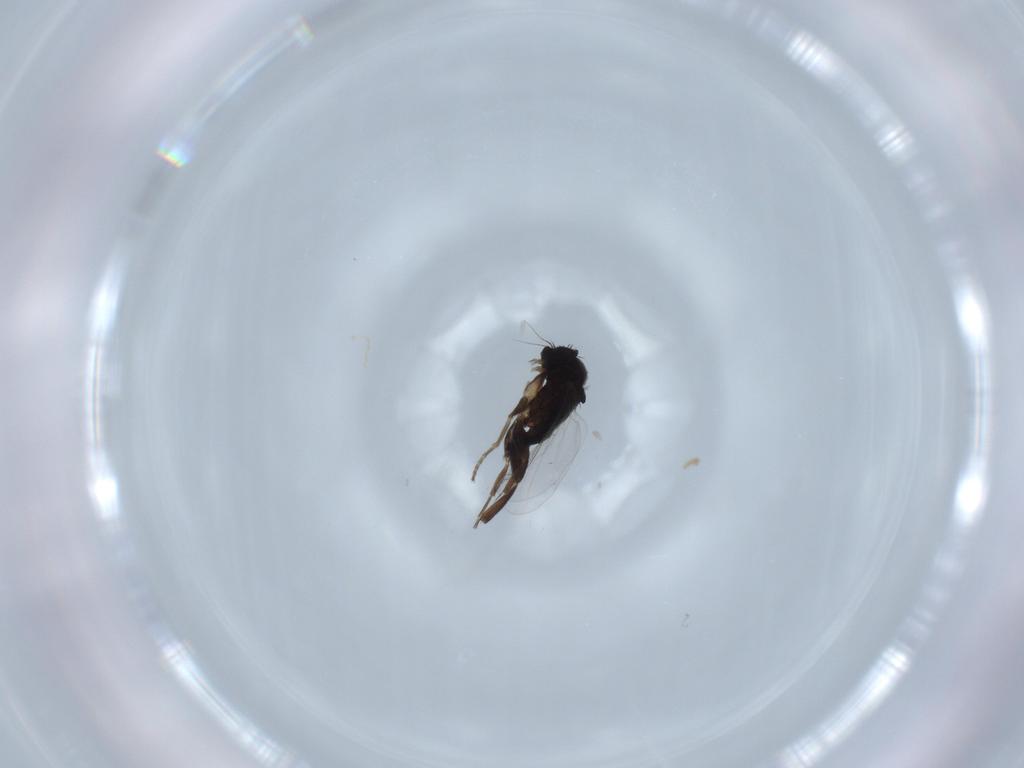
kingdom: Animalia
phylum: Arthropoda
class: Insecta
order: Diptera
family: Phoridae
